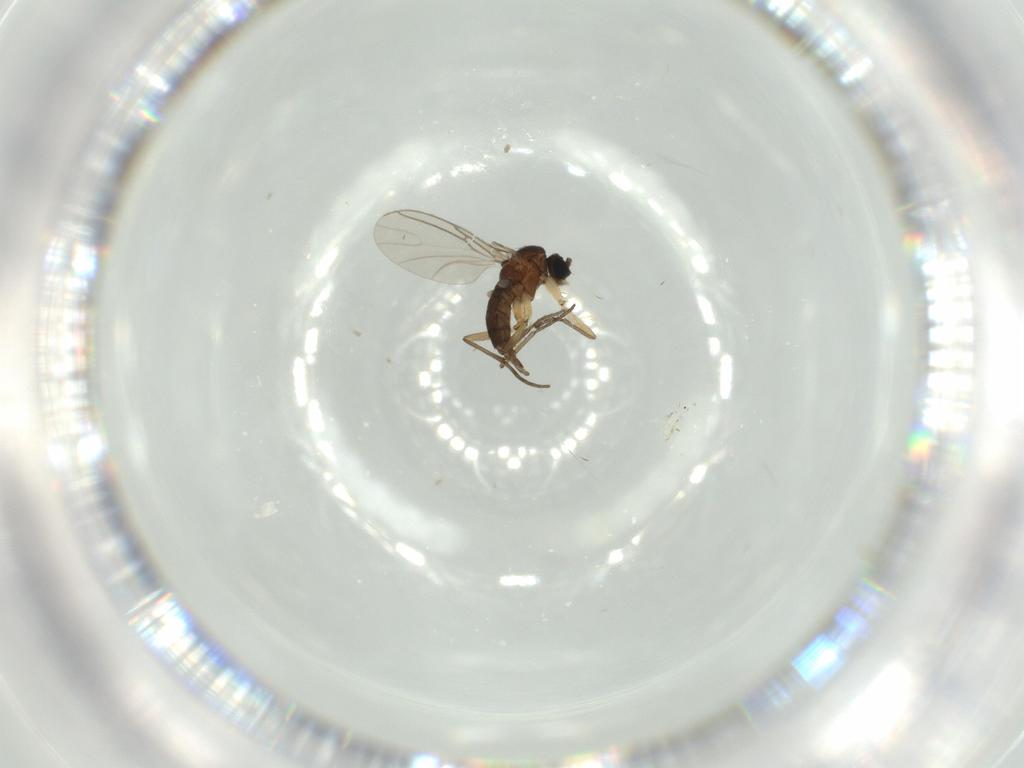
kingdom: Animalia
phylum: Arthropoda
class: Insecta
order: Diptera
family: Sciaridae
